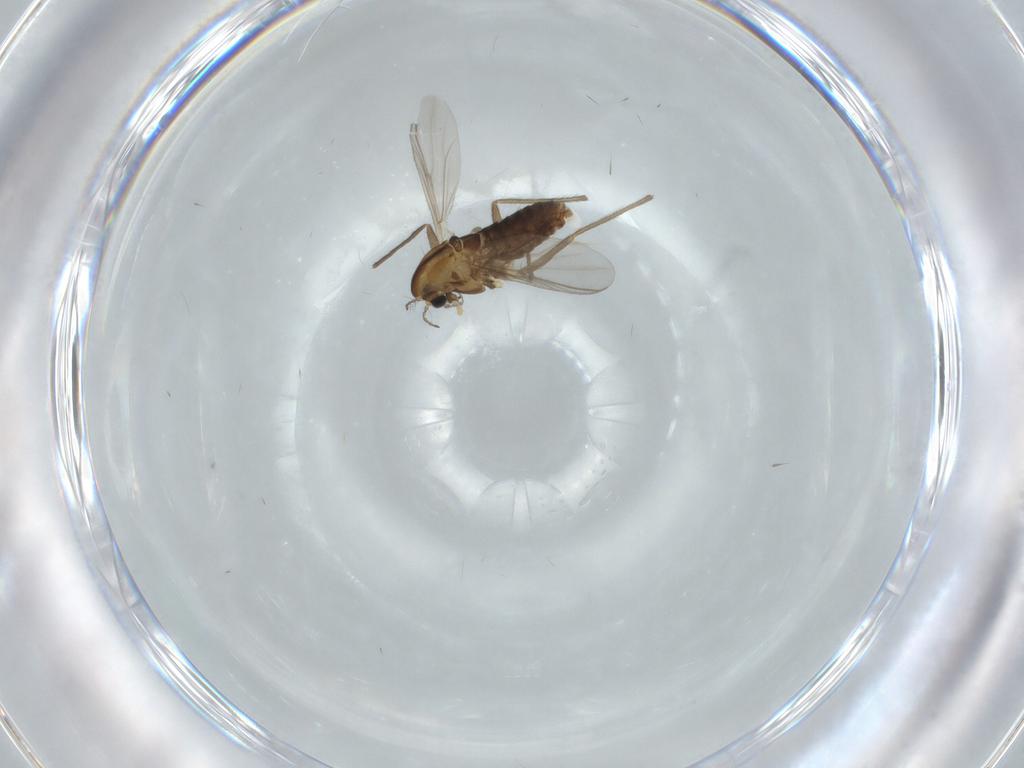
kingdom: Animalia
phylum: Arthropoda
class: Insecta
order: Diptera
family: Chironomidae
